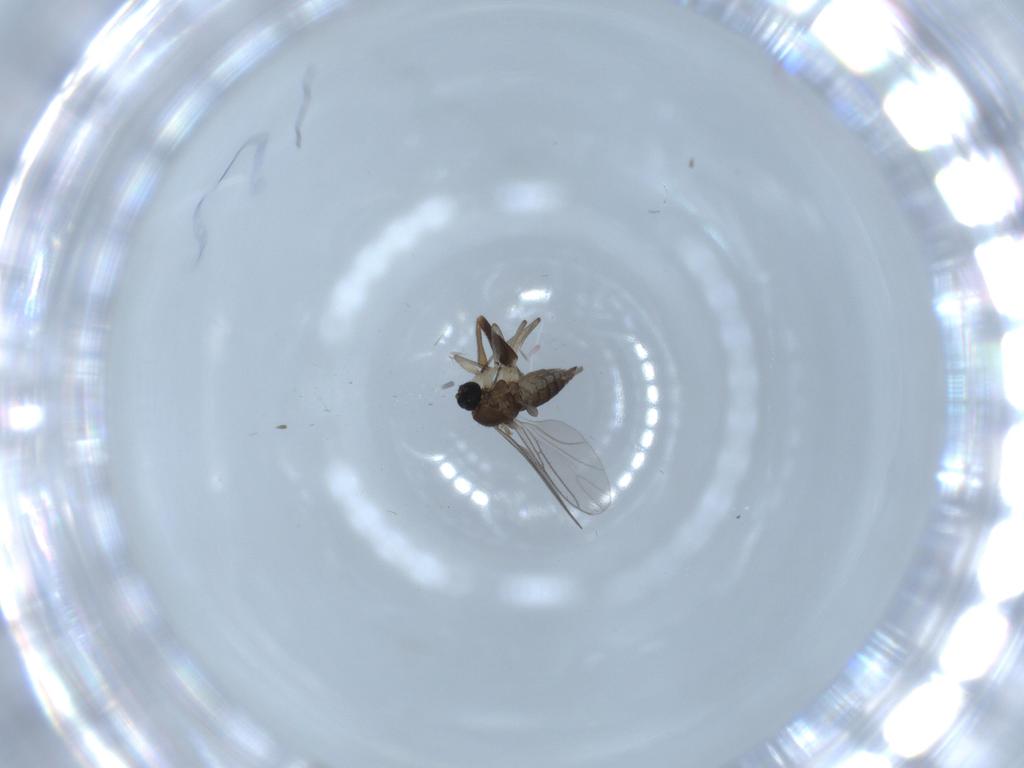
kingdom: Animalia
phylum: Arthropoda
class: Insecta
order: Diptera
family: Sciaridae
